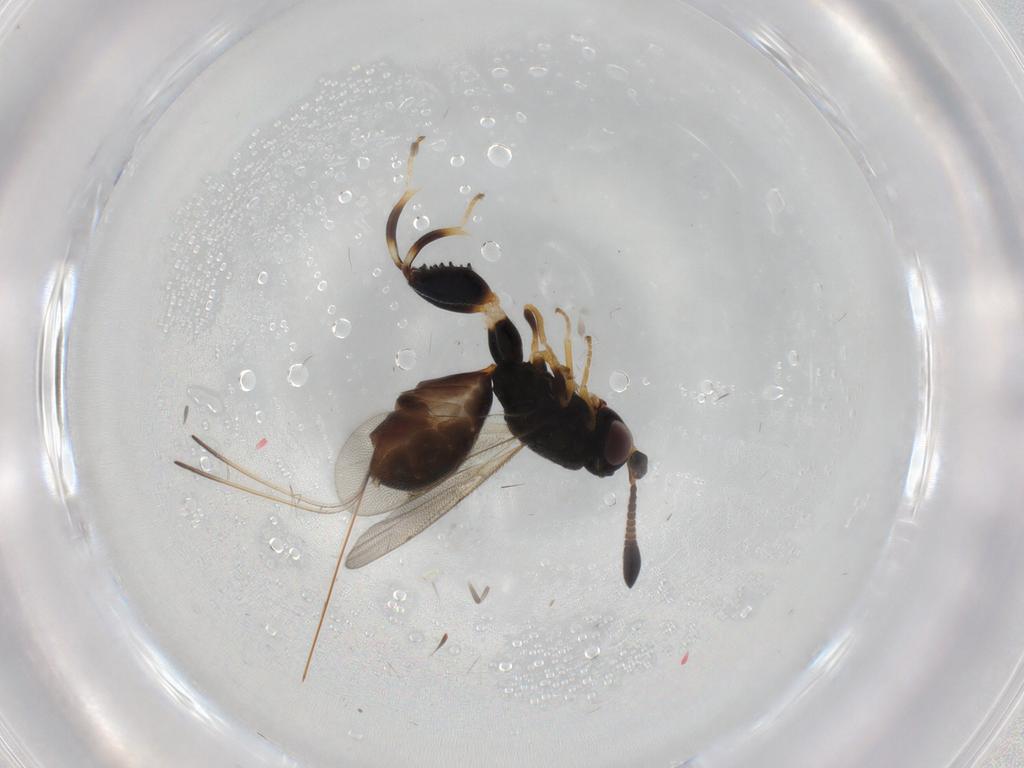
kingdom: Animalia
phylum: Arthropoda
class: Insecta
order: Hymenoptera
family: Torymidae
